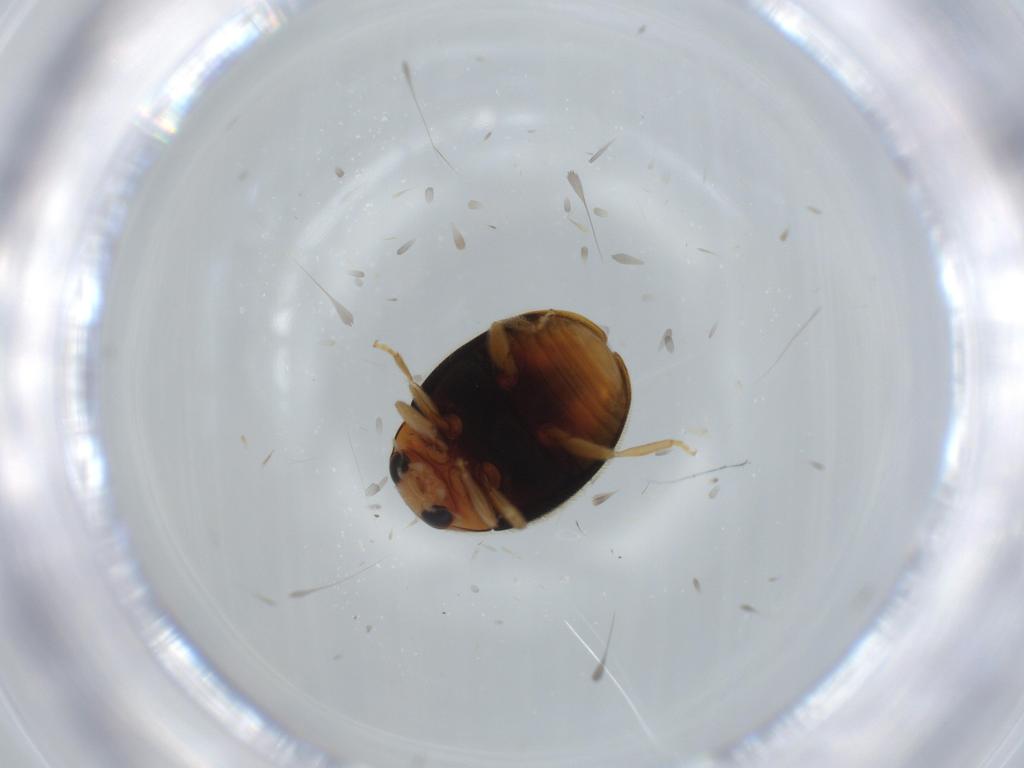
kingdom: Animalia
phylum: Arthropoda
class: Insecta
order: Coleoptera
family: Coccinellidae
